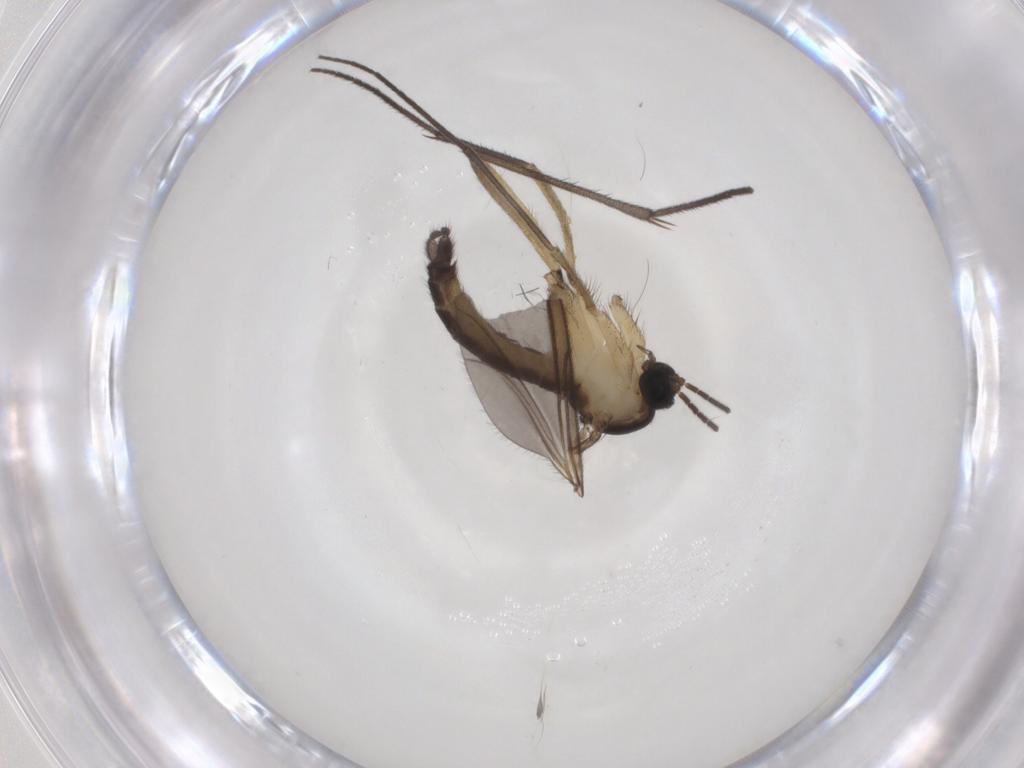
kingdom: Animalia
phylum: Arthropoda
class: Insecta
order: Diptera
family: Sciaridae
